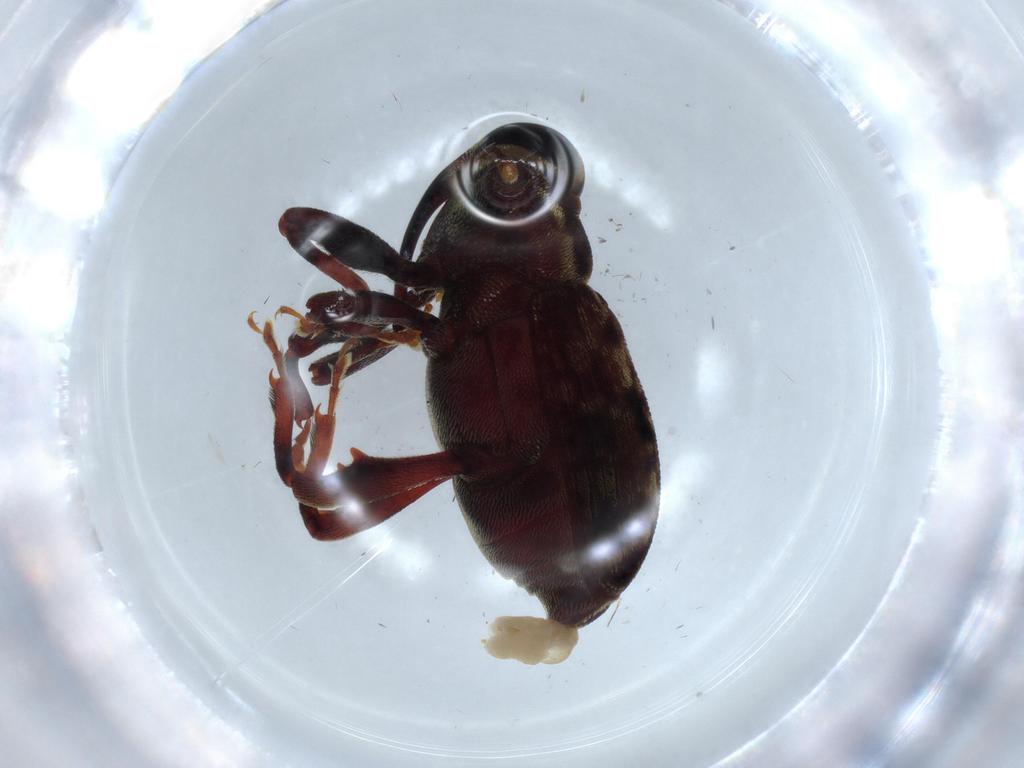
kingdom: Animalia
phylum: Arthropoda
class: Insecta
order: Coleoptera
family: Curculionidae
